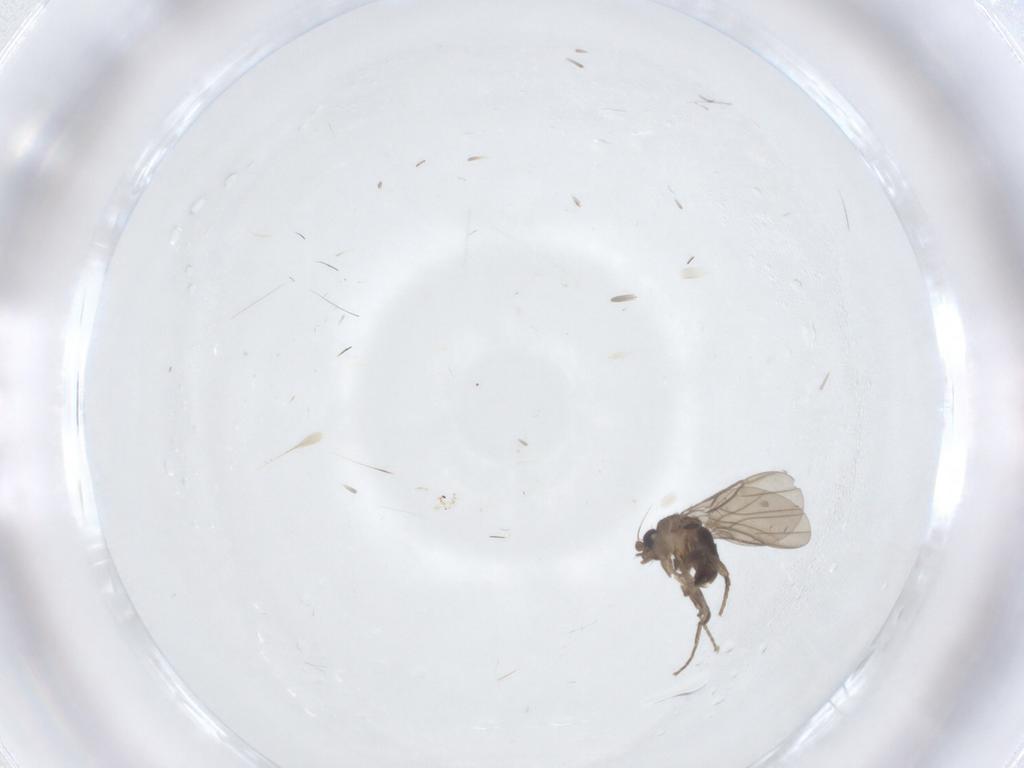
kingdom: Animalia
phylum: Arthropoda
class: Insecta
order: Diptera
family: Phoridae
